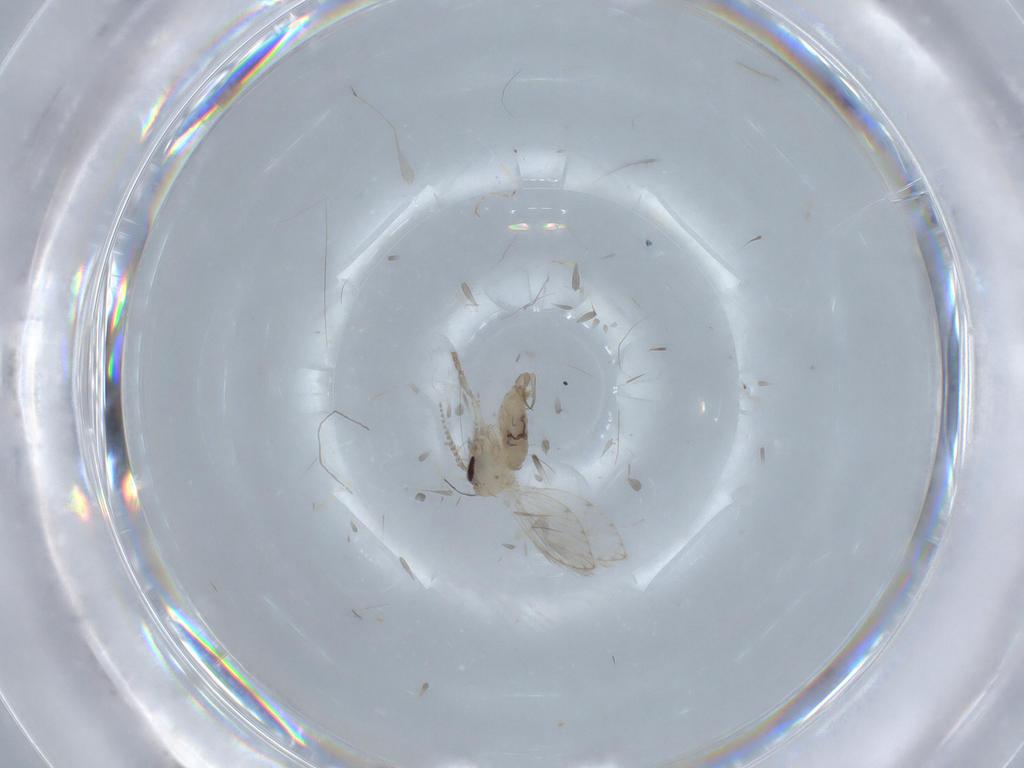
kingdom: Animalia
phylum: Arthropoda
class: Insecta
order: Diptera
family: Psychodidae
